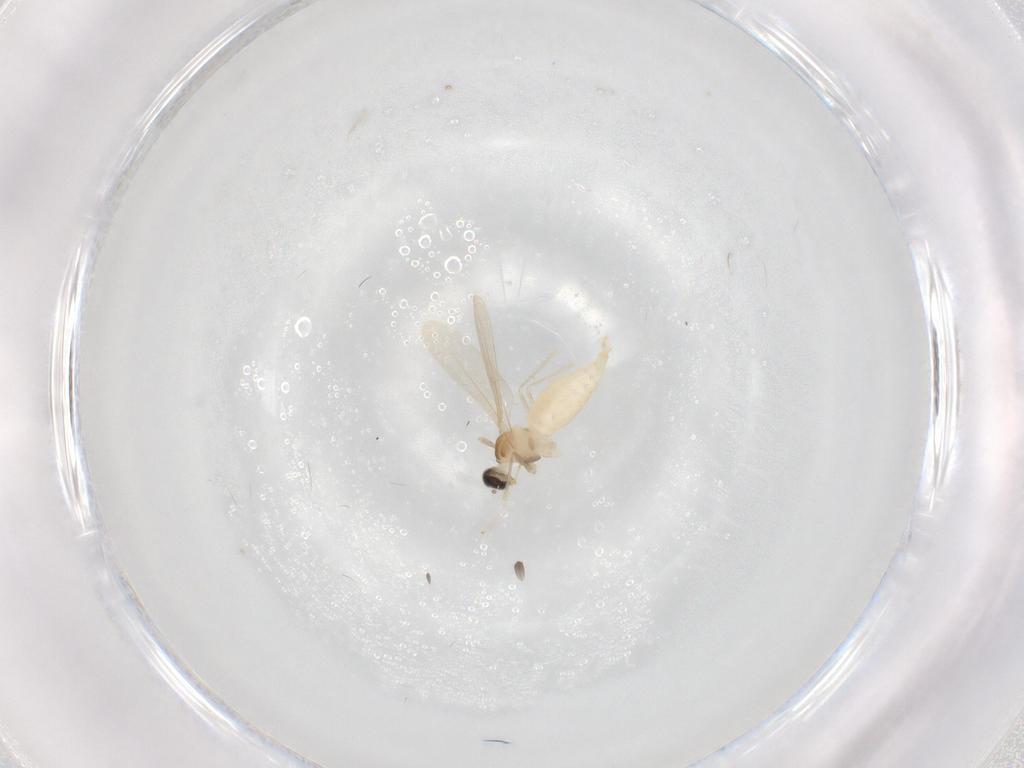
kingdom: Animalia
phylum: Arthropoda
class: Insecta
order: Diptera
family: Cecidomyiidae
